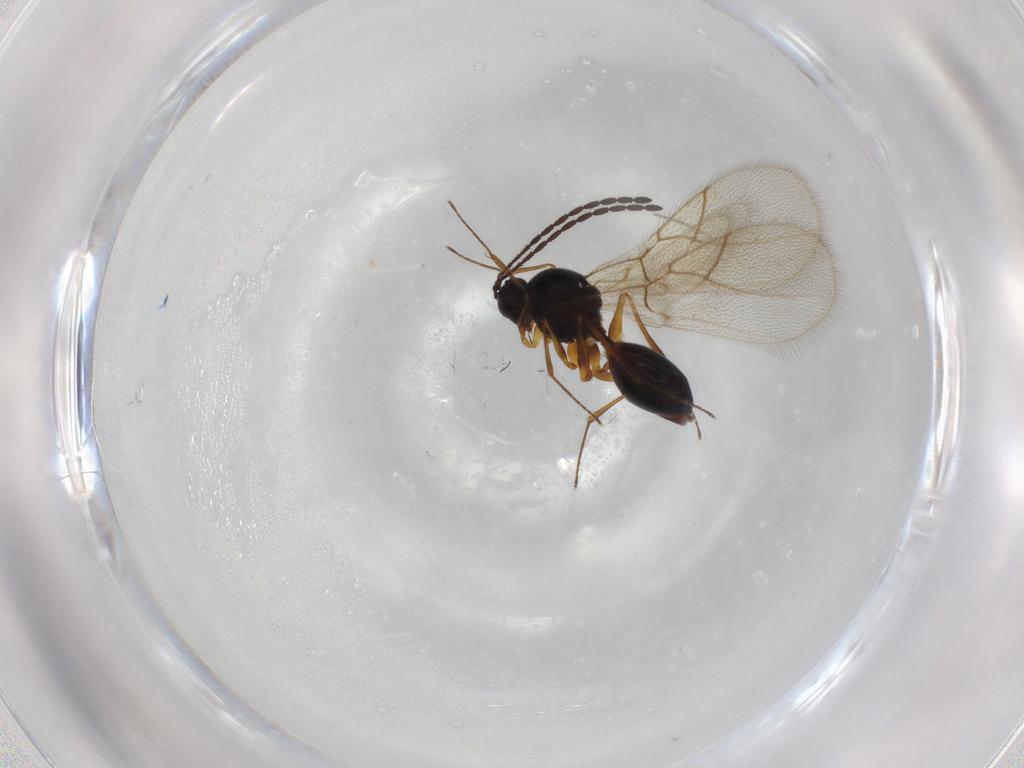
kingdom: Animalia
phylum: Arthropoda
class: Insecta
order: Hymenoptera
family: Figitidae
